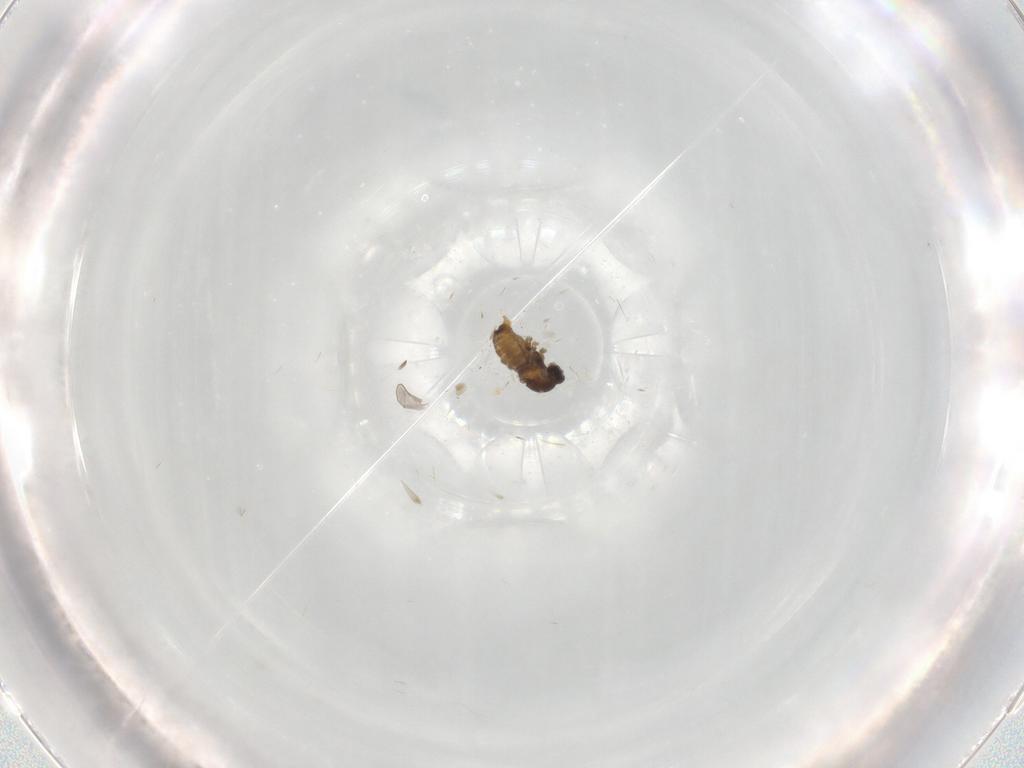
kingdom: Animalia
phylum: Arthropoda
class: Insecta
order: Diptera
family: Cecidomyiidae
